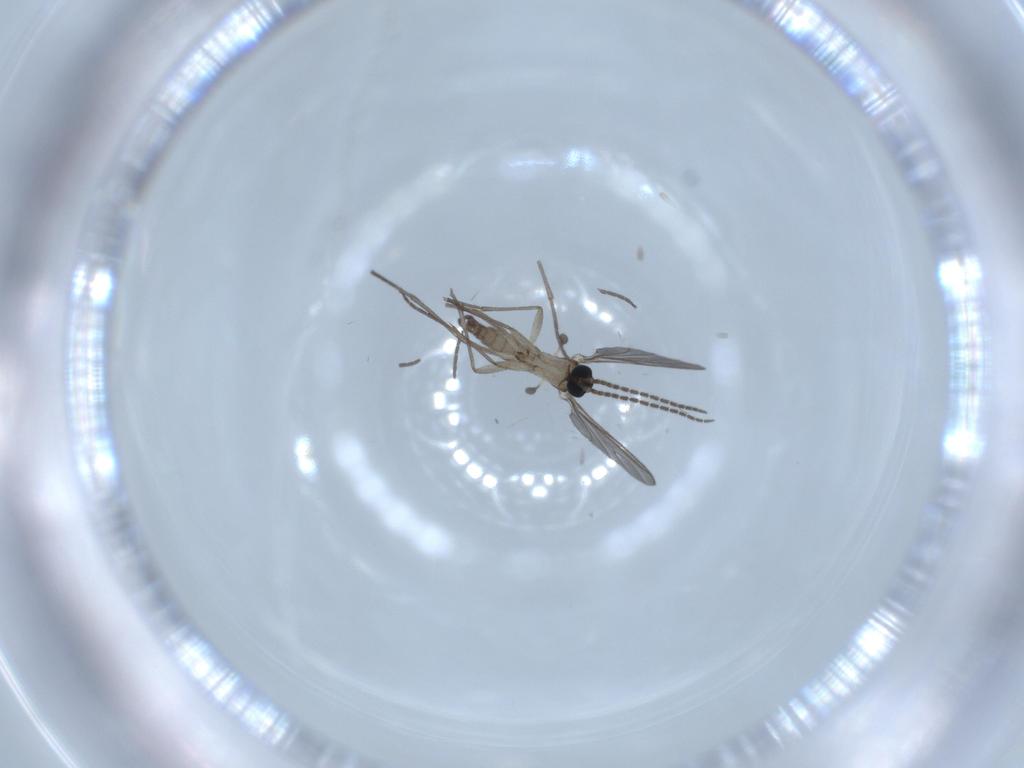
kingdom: Animalia
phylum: Arthropoda
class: Insecta
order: Diptera
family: Sciaridae
